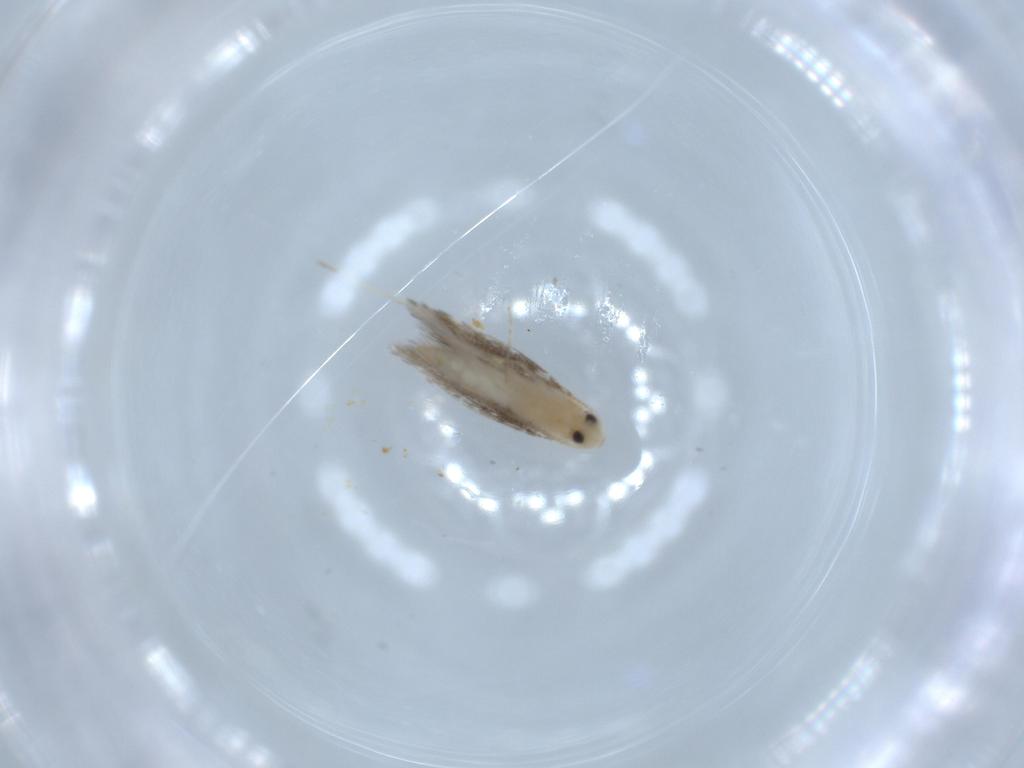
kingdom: Animalia
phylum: Arthropoda
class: Insecta
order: Lepidoptera
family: Gracillariidae
